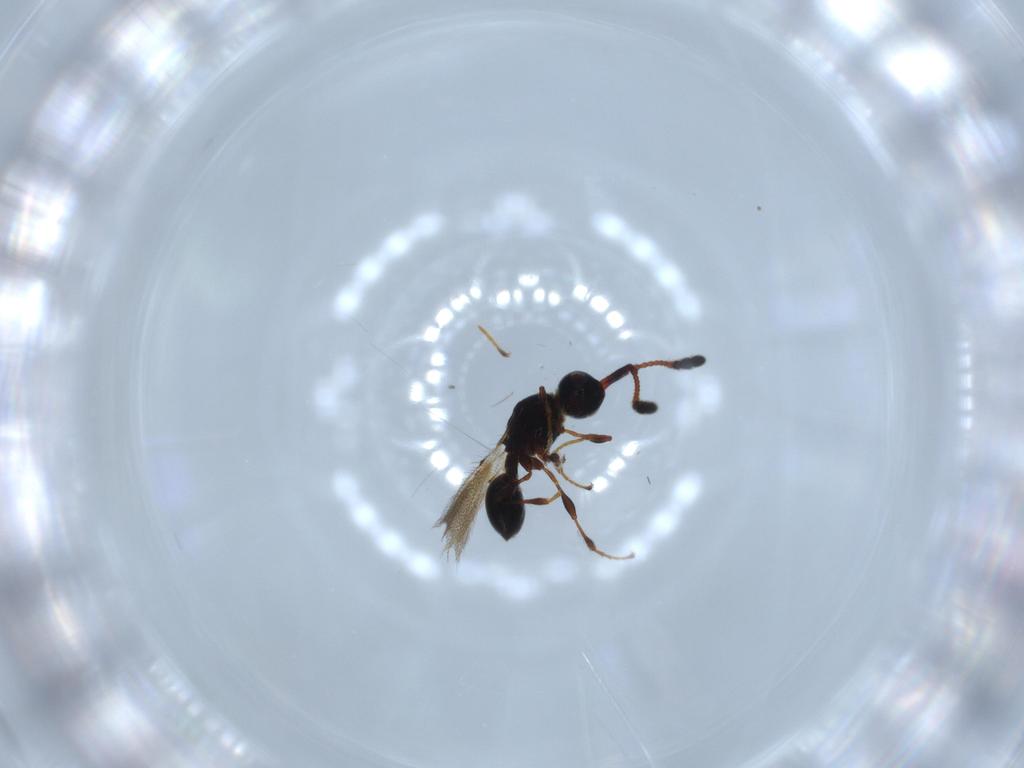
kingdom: Animalia
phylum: Arthropoda
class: Insecta
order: Hymenoptera
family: Diapriidae
